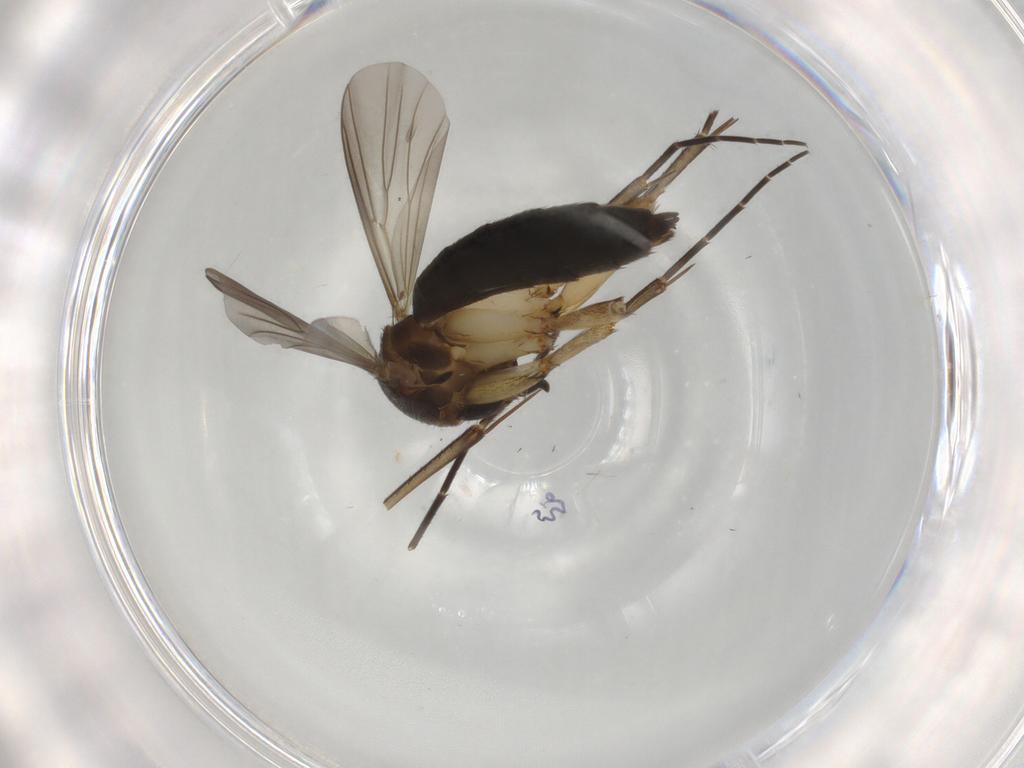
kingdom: Animalia
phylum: Arthropoda
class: Insecta
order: Diptera
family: Mycetophilidae
